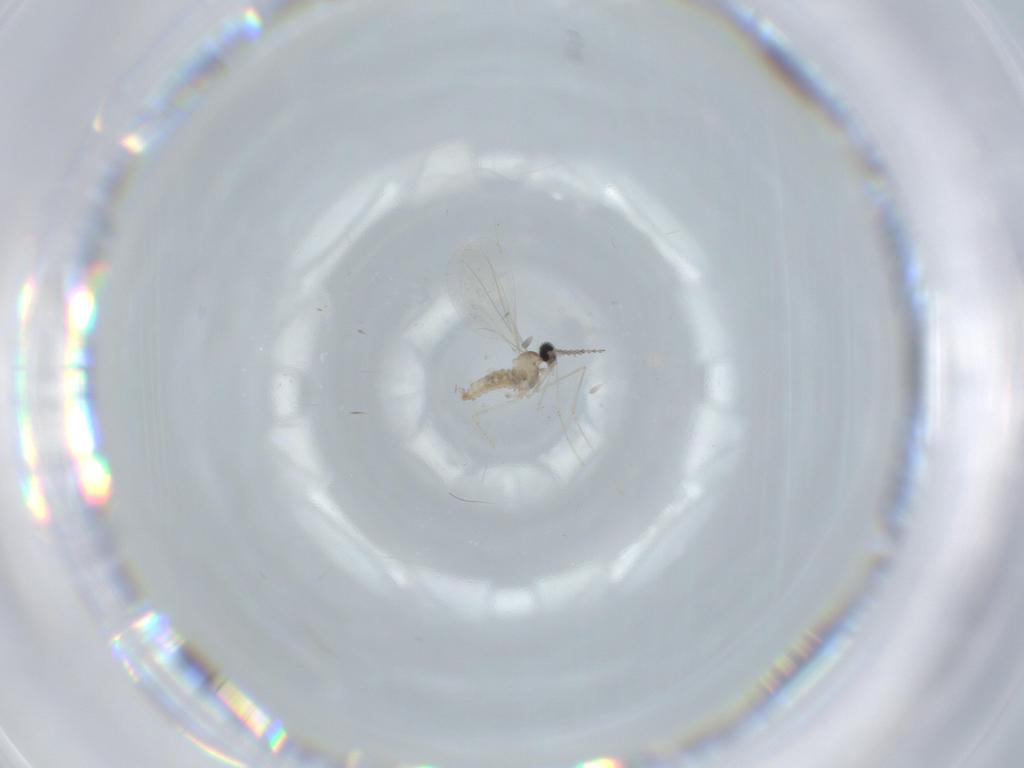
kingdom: Animalia
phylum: Arthropoda
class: Insecta
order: Diptera
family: Cecidomyiidae
